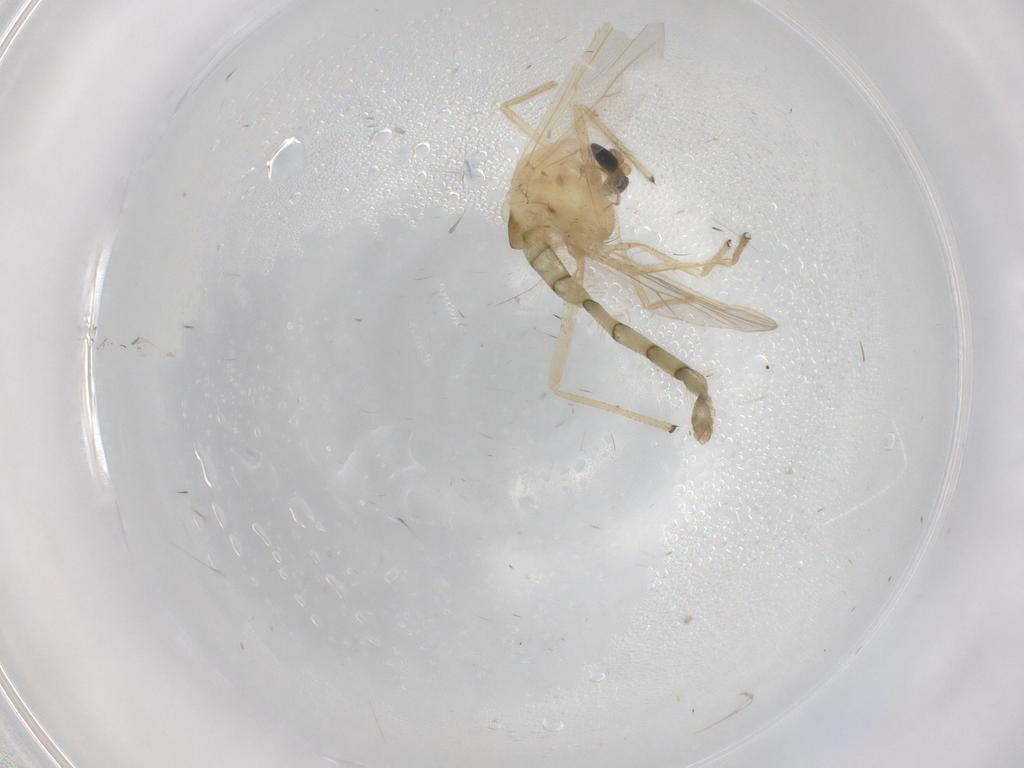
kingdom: Animalia
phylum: Arthropoda
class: Insecta
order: Diptera
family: Chironomidae
